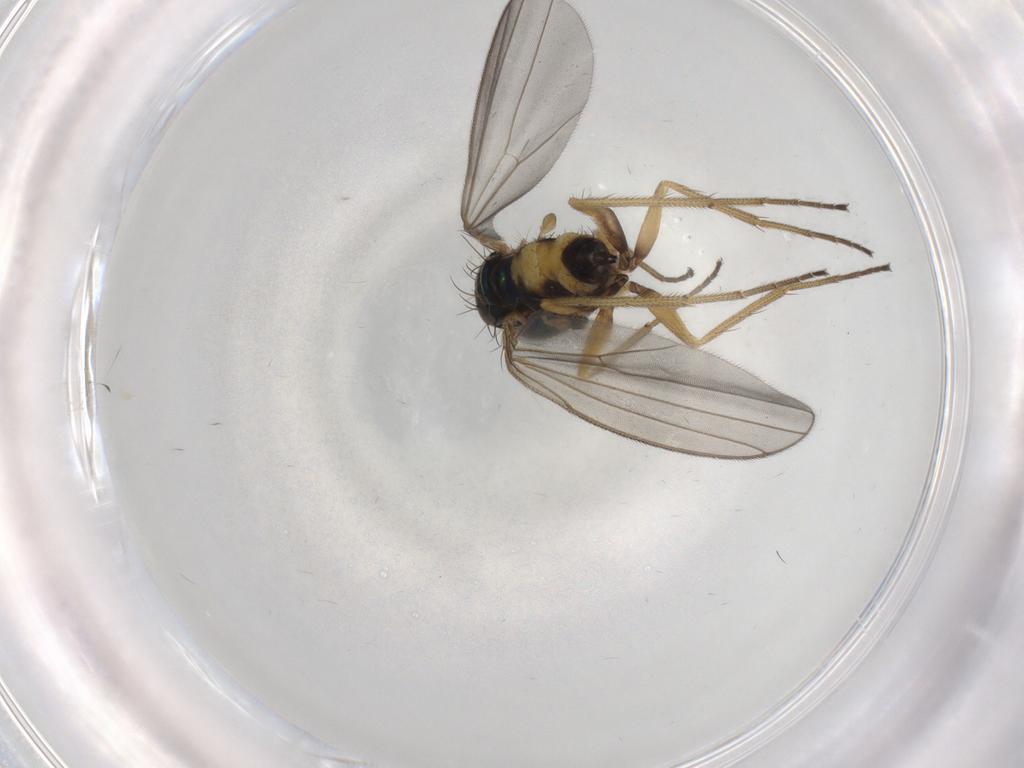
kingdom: Animalia
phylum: Arthropoda
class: Insecta
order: Diptera
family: Dolichopodidae
